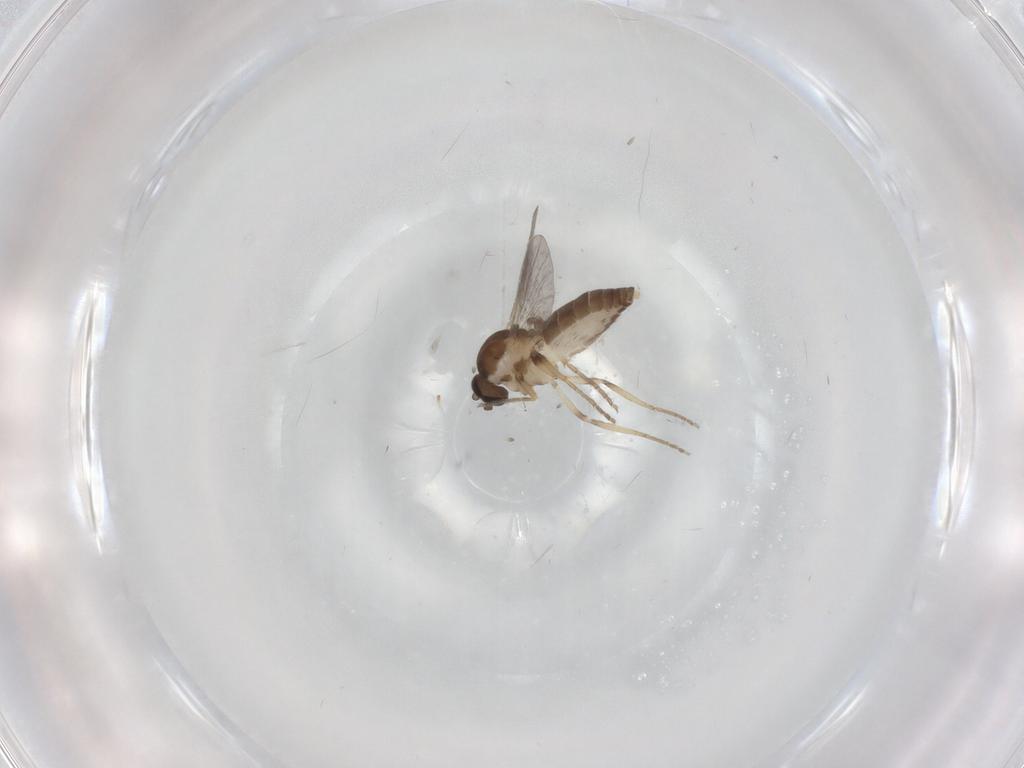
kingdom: Animalia
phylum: Arthropoda
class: Insecta
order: Diptera
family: Ceratopogonidae
